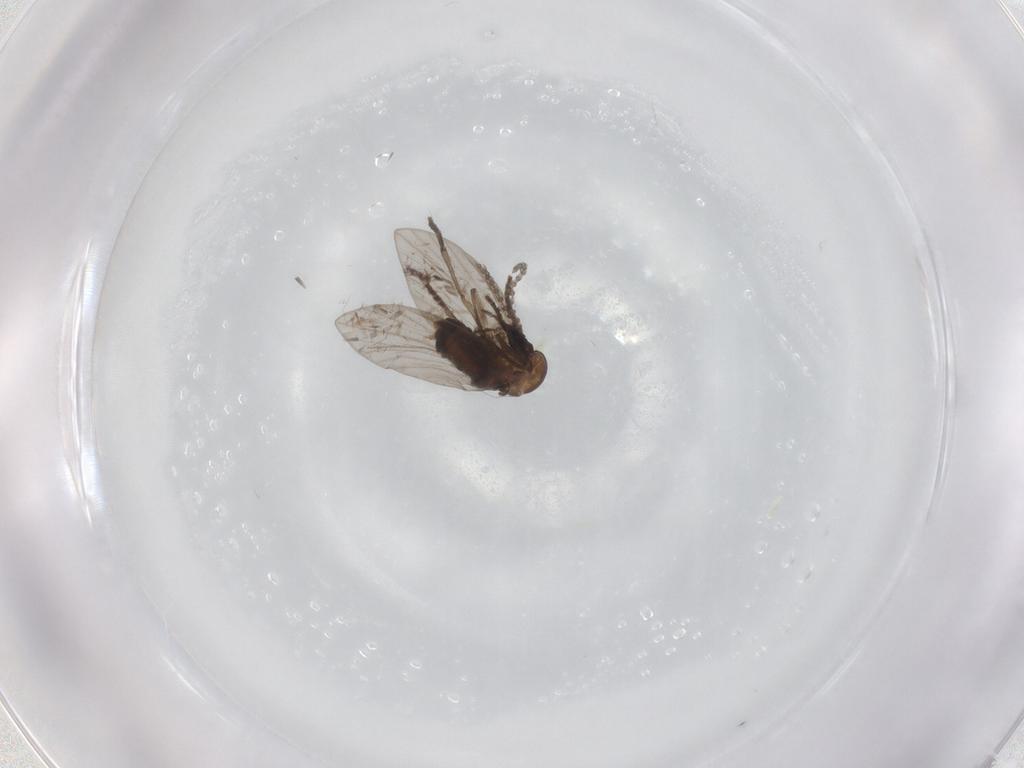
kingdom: Animalia
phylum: Arthropoda
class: Insecta
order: Diptera
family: Psychodidae
